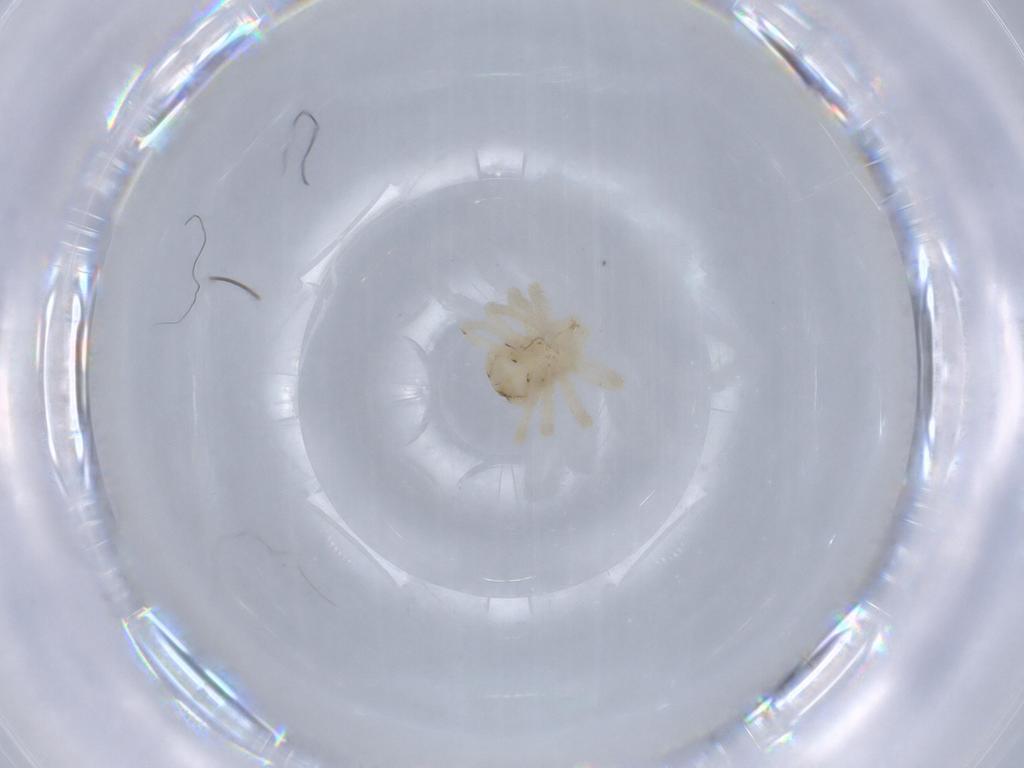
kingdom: Animalia
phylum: Arthropoda
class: Arachnida
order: Trombidiformes
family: Anystidae
